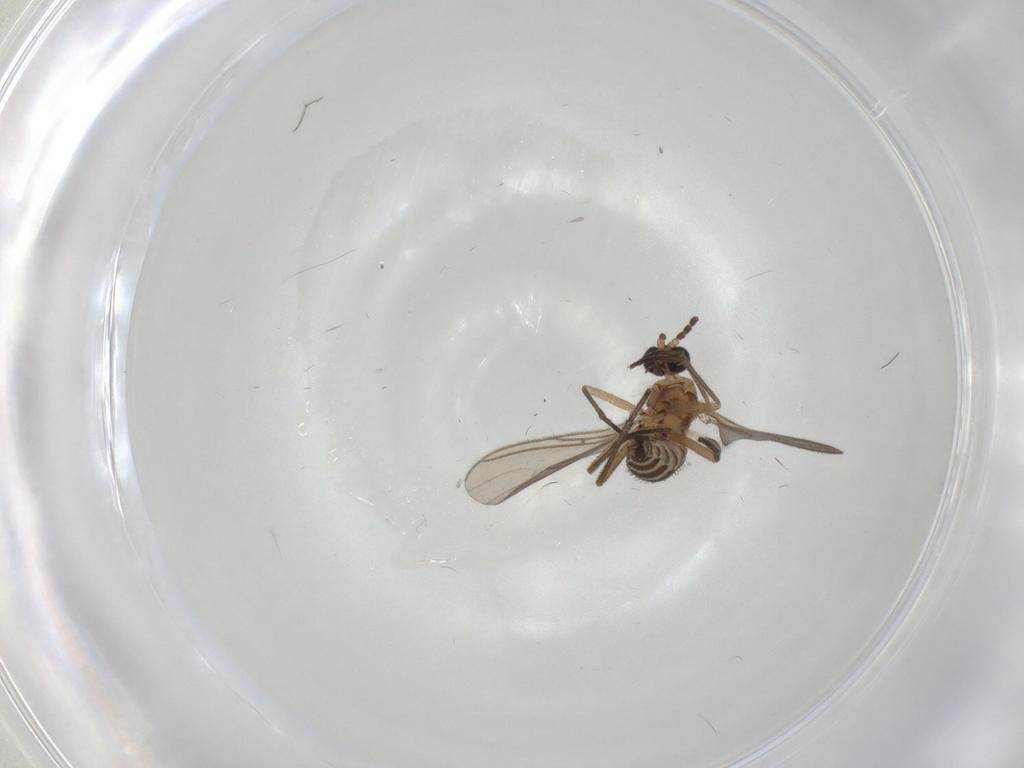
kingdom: Animalia
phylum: Arthropoda
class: Insecta
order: Diptera
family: Sciaridae
